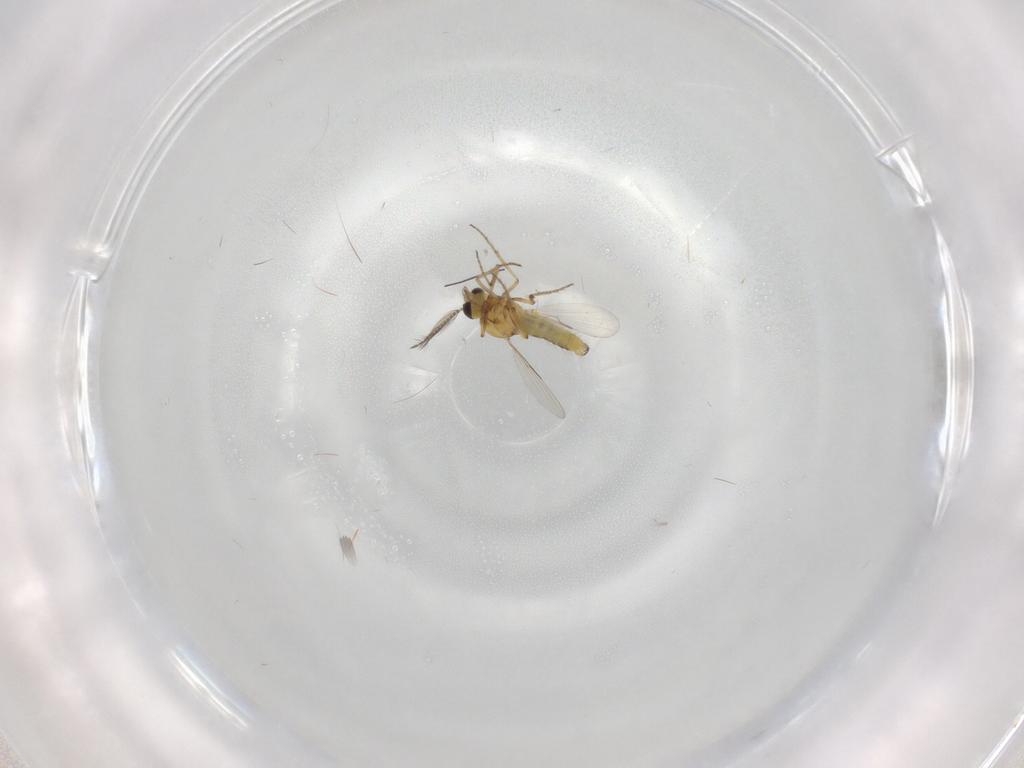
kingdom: Animalia
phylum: Arthropoda
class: Insecta
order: Diptera
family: Ceratopogonidae
